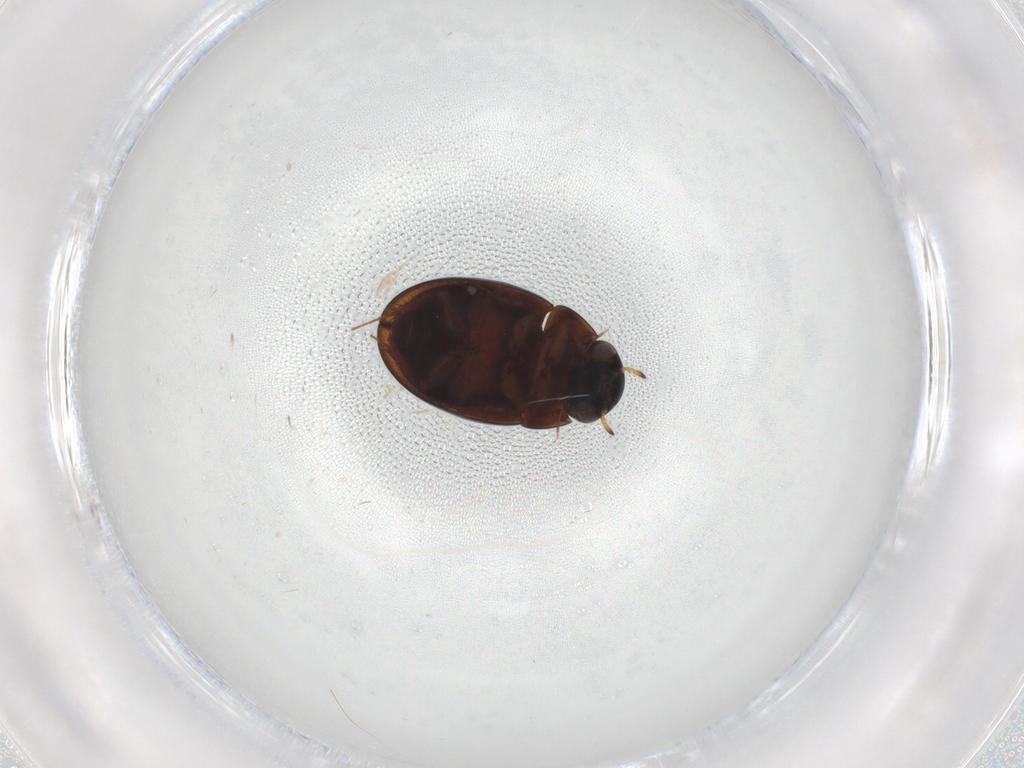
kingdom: Animalia
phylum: Arthropoda
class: Insecta
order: Coleoptera
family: Hydrophilidae
